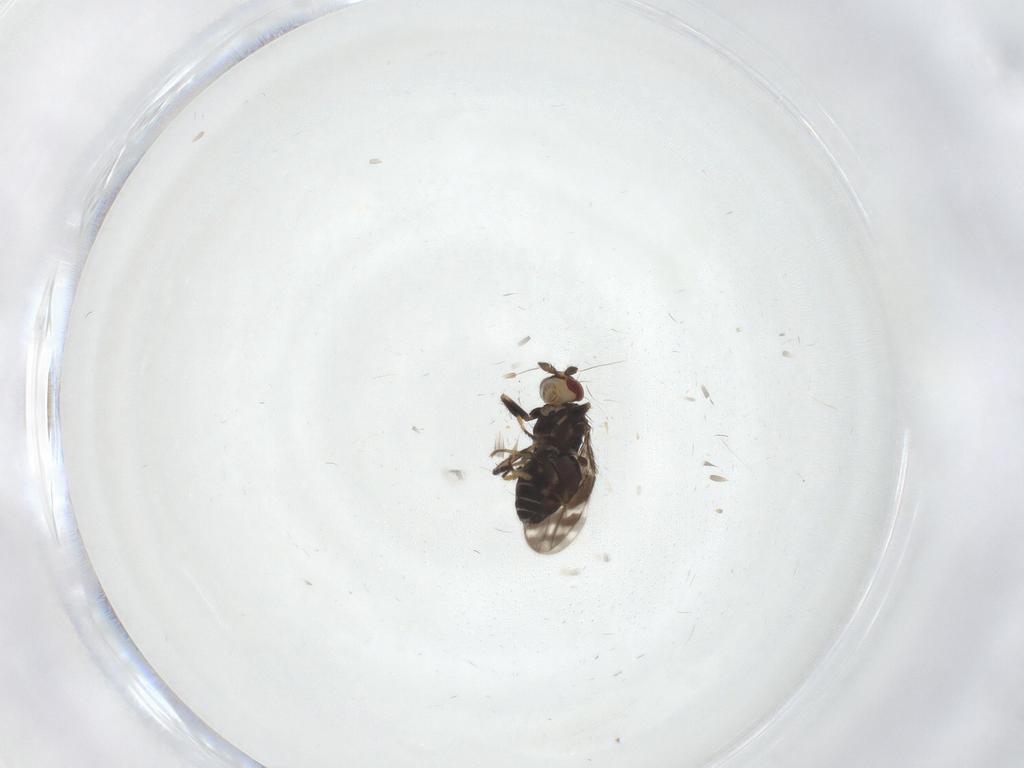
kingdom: Animalia
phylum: Arthropoda
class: Insecta
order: Diptera
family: Sphaeroceridae
